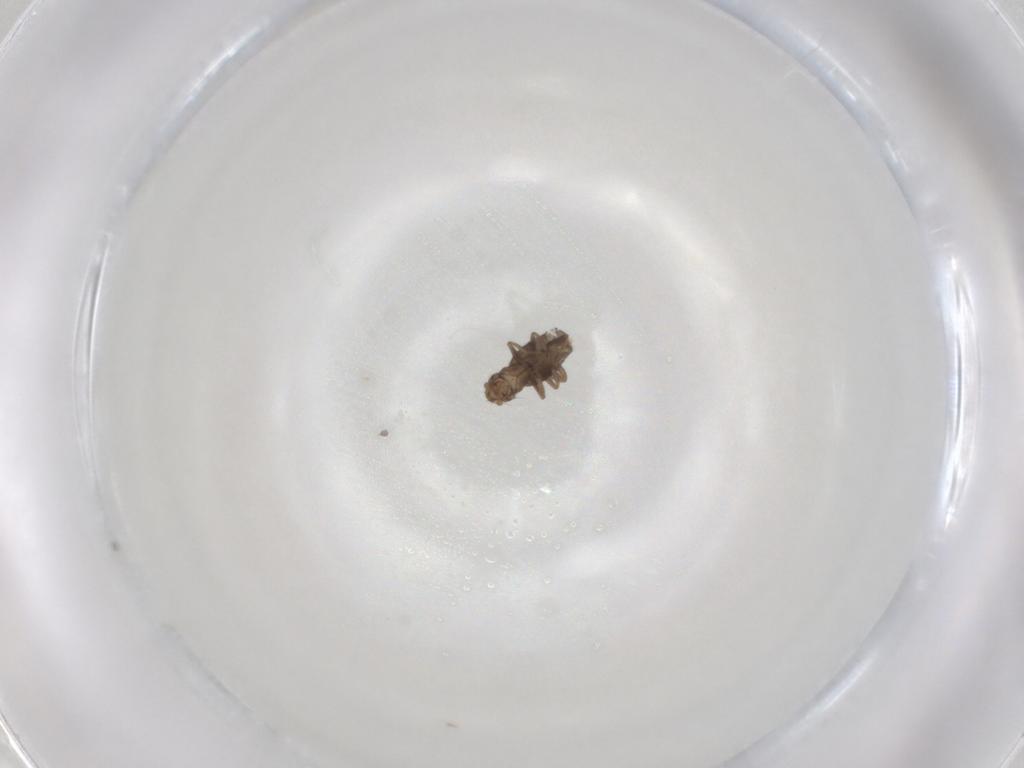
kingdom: Animalia
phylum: Arthropoda
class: Insecta
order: Diptera
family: Phoridae
